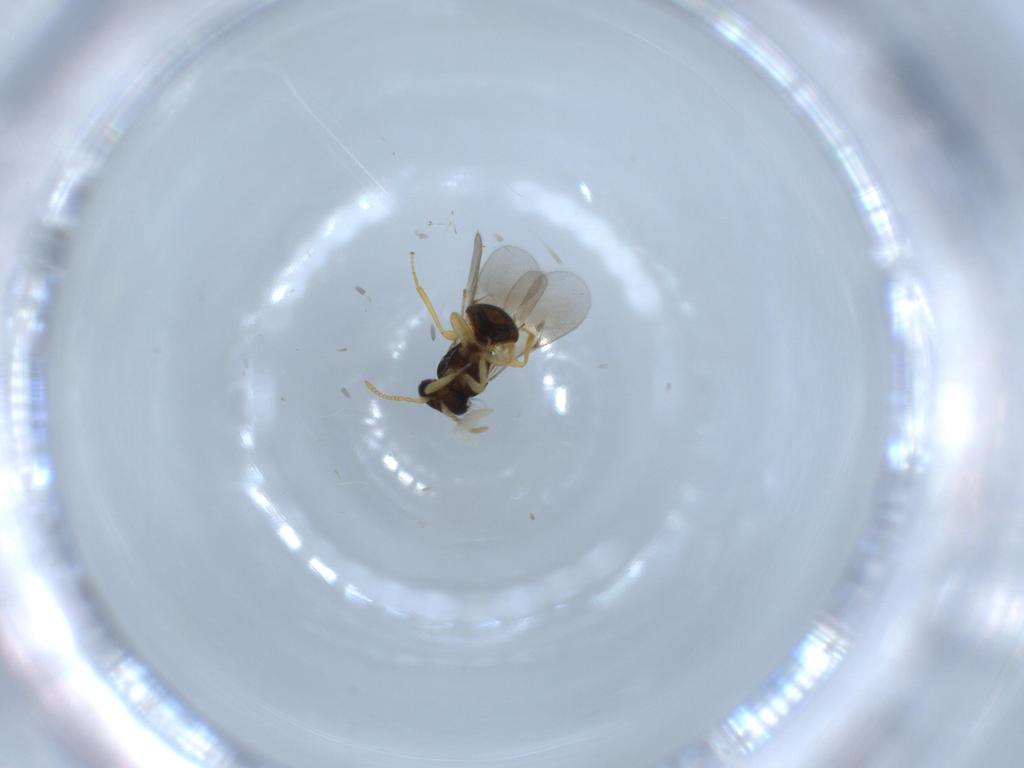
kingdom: Animalia
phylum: Arthropoda
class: Insecta
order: Hymenoptera
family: Scelionidae
